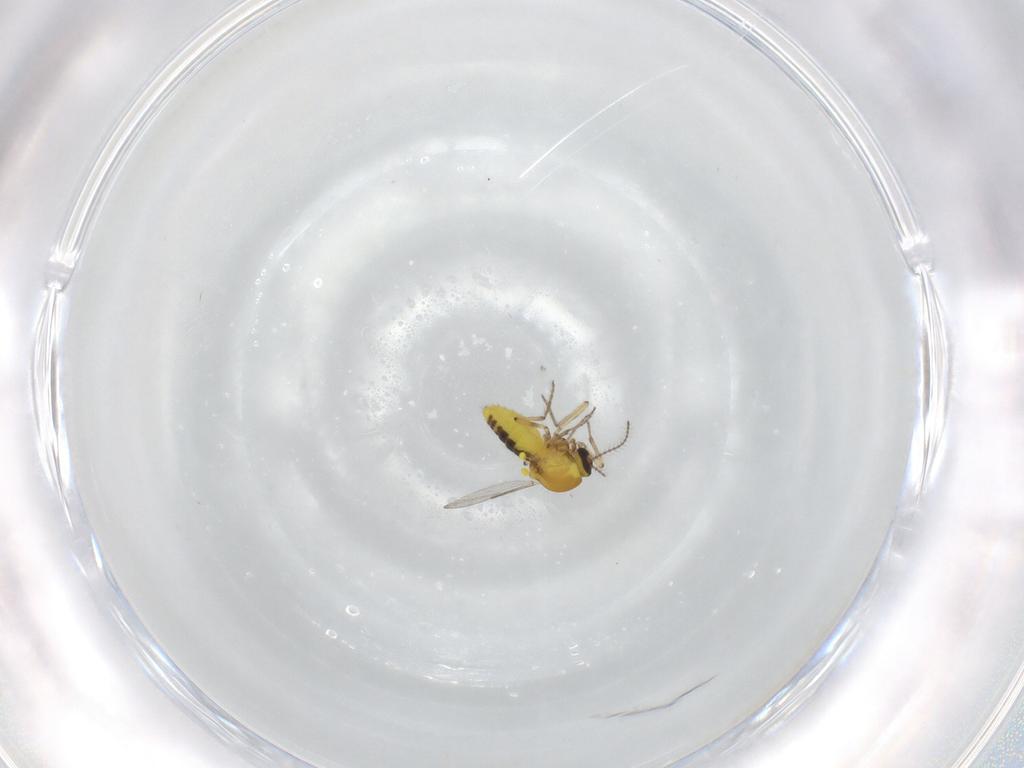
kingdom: Animalia
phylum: Arthropoda
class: Insecta
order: Diptera
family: Ceratopogonidae
